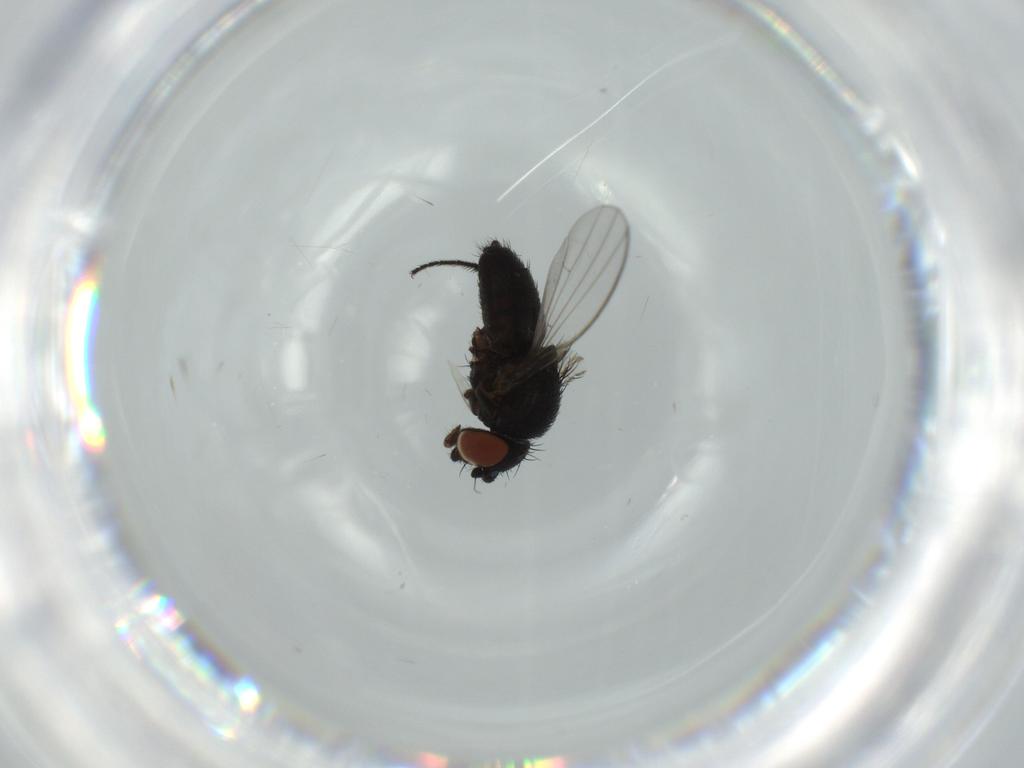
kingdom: Animalia
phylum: Arthropoda
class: Insecta
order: Diptera
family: Milichiidae
